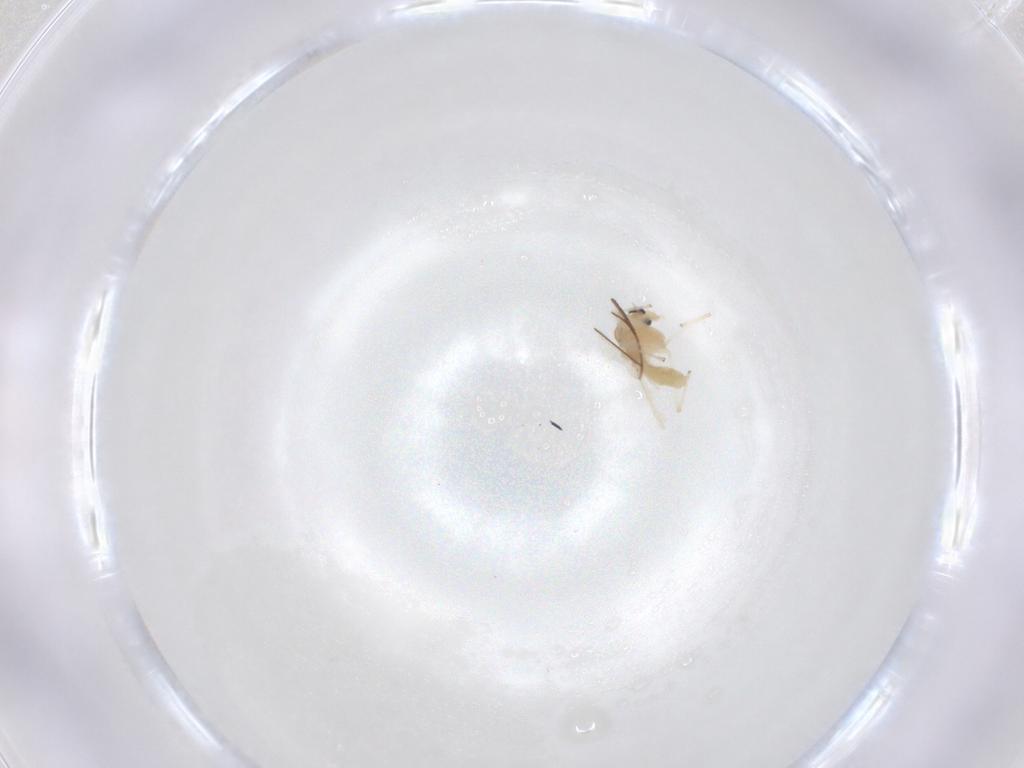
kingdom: Animalia
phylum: Arthropoda
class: Insecta
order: Diptera
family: Chironomidae
